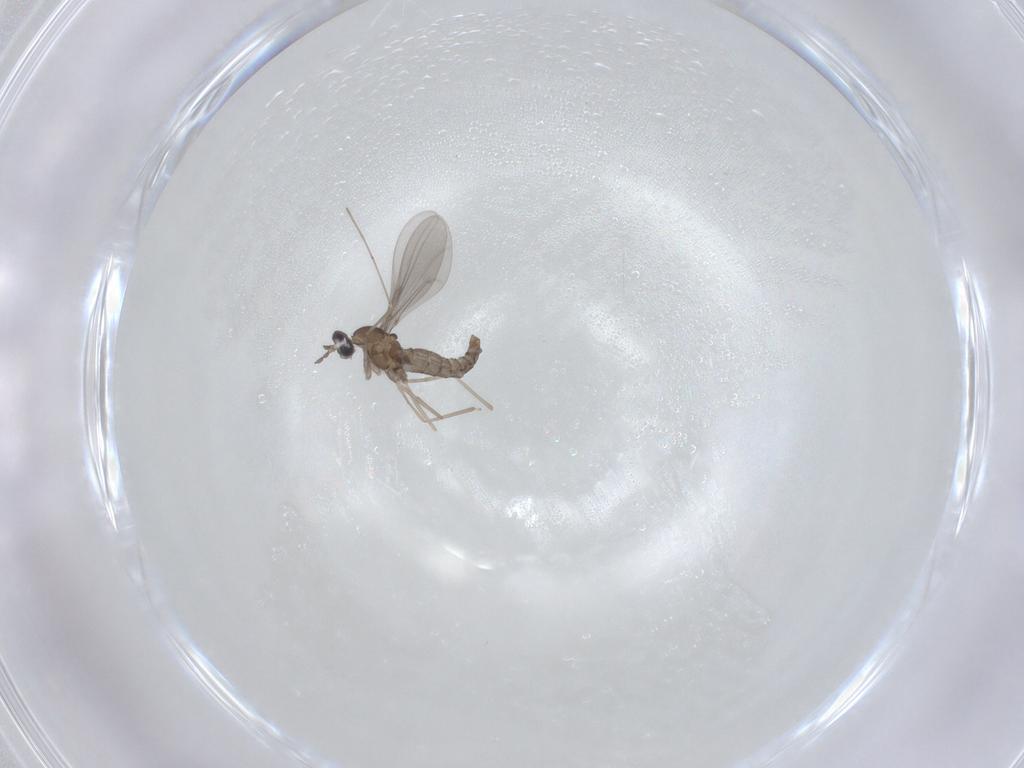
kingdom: Animalia
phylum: Arthropoda
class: Insecta
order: Diptera
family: Cecidomyiidae
